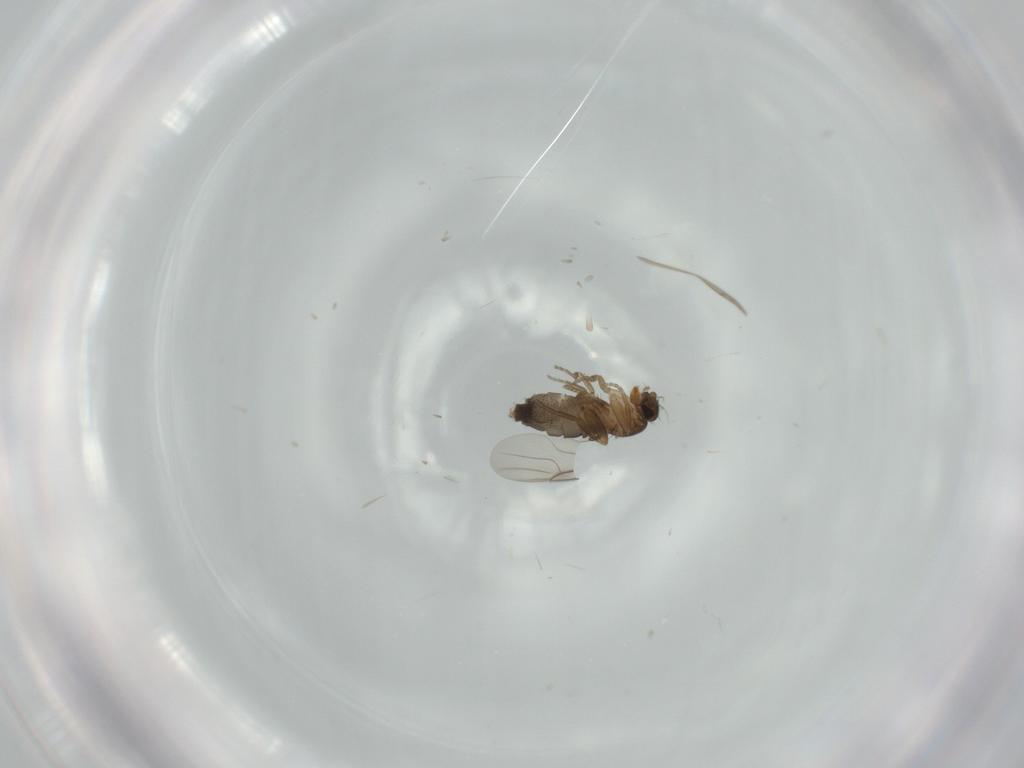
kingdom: Animalia
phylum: Arthropoda
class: Insecta
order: Diptera
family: Phoridae
